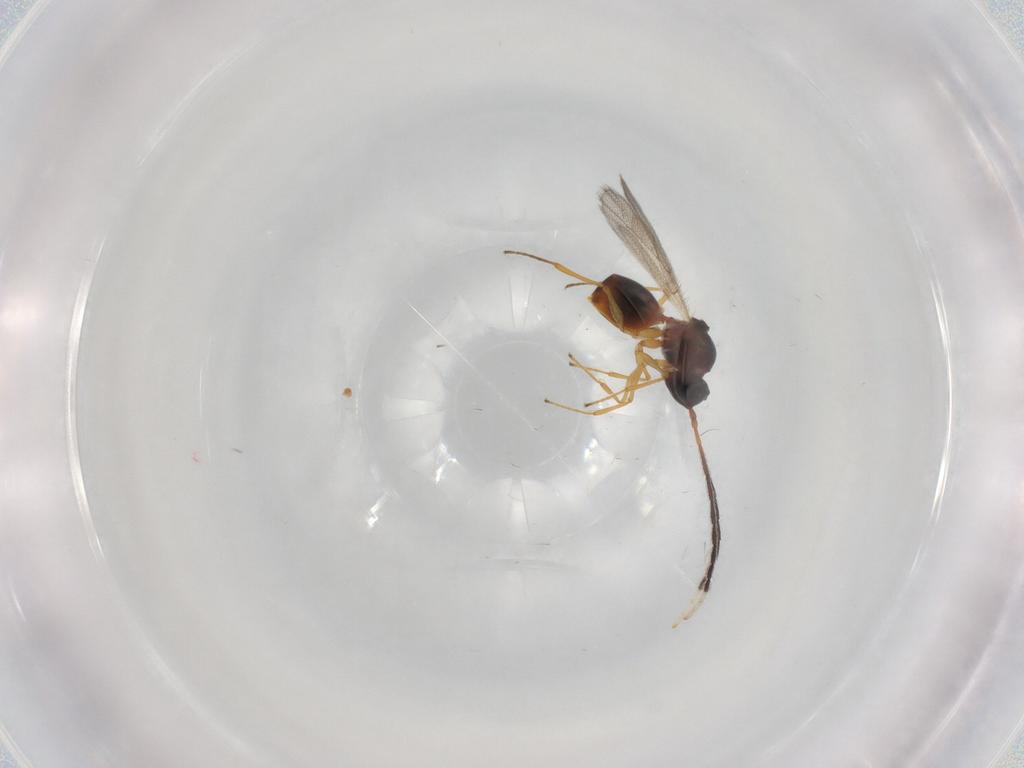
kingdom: Animalia
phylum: Arthropoda
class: Insecta
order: Hymenoptera
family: Figitidae
